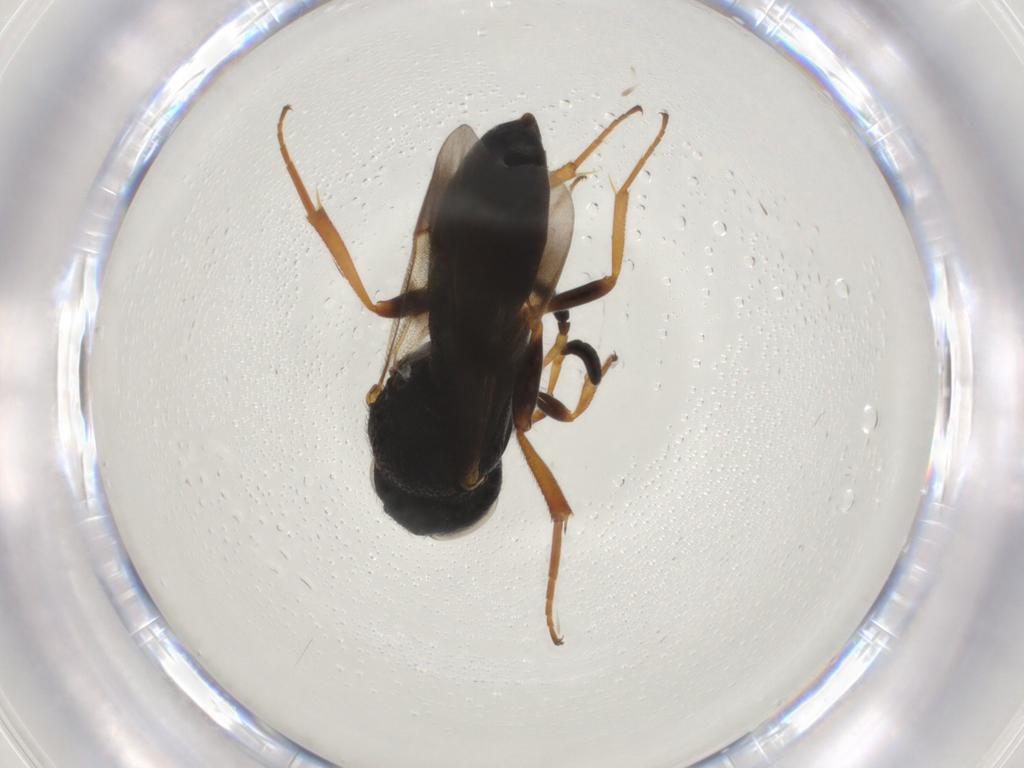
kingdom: Animalia
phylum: Arthropoda
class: Insecta
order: Hymenoptera
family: Scelionidae
